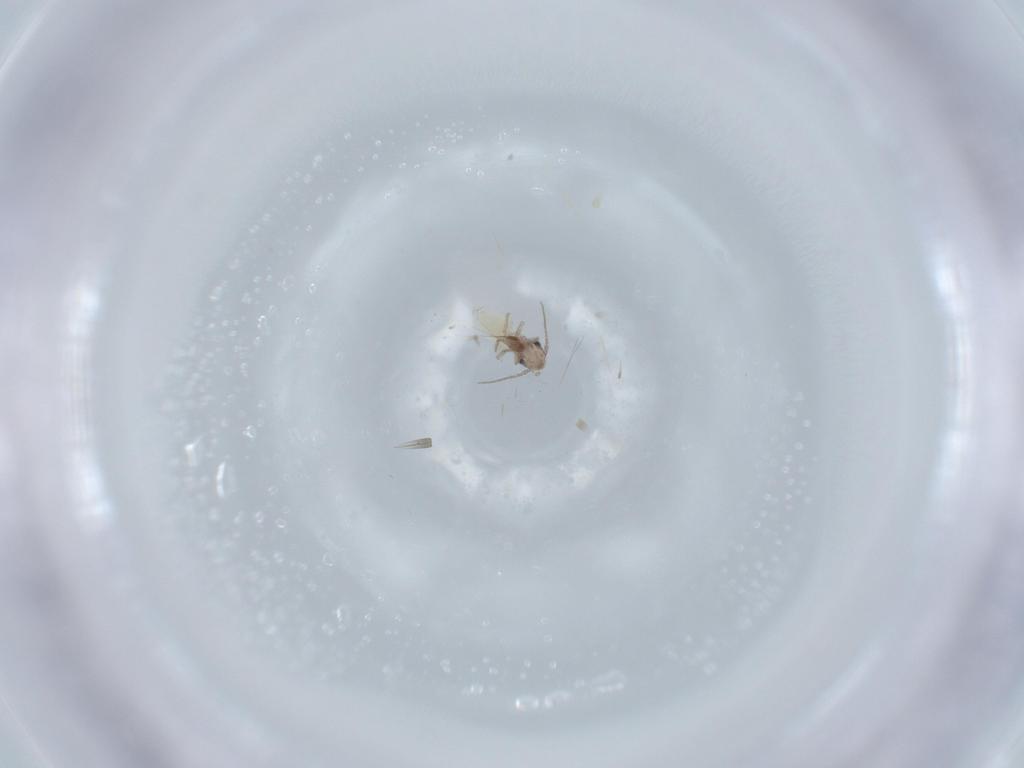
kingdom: Animalia
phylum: Arthropoda
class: Insecta
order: Psocodea
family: Lepidopsocidae
